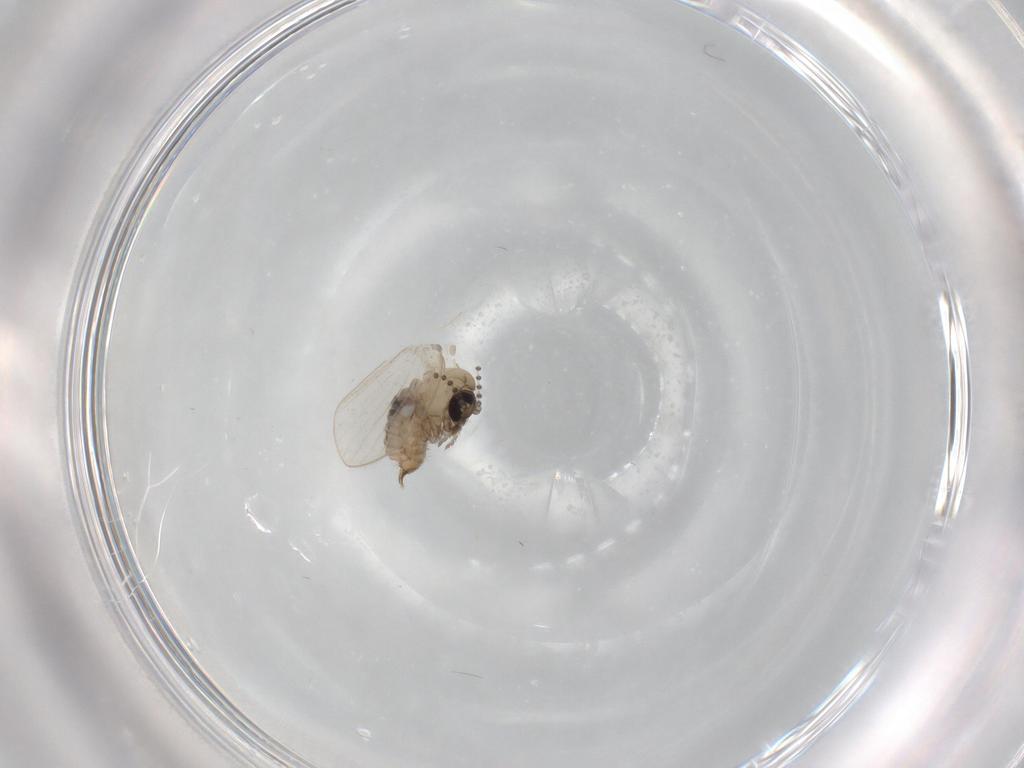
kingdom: Animalia
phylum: Arthropoda
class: Insecta
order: Diptera
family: Psychodidae
